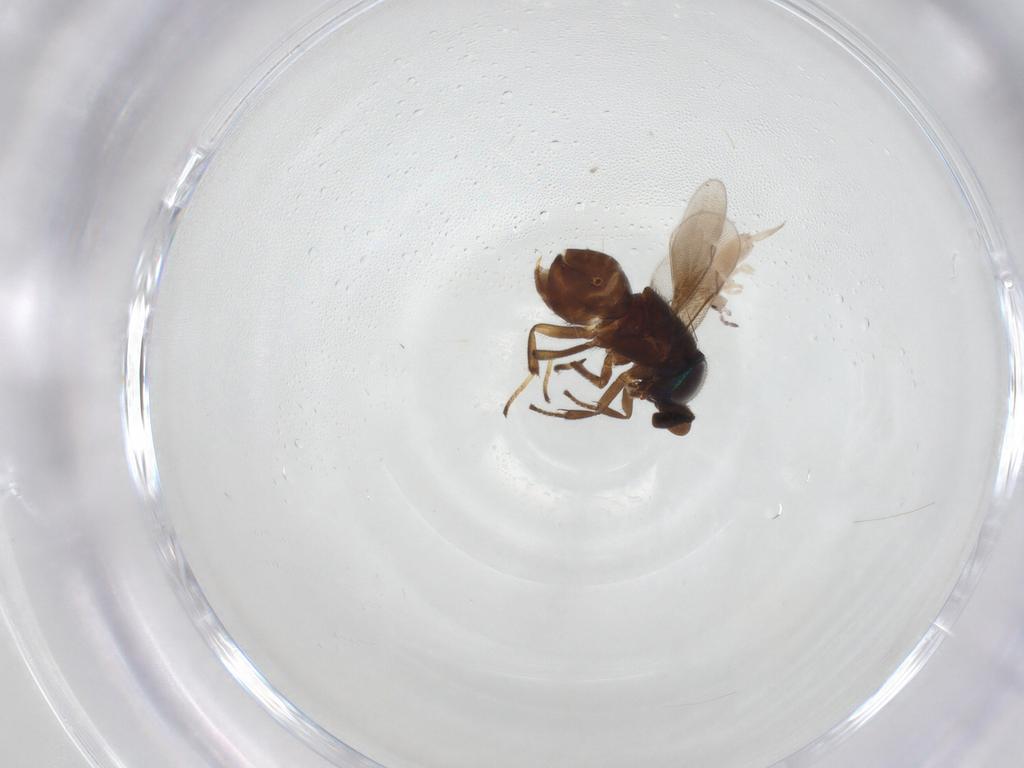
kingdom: Animalia
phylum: Arthropoda
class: Insecta
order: Hymenoptera
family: Encyrtidae
